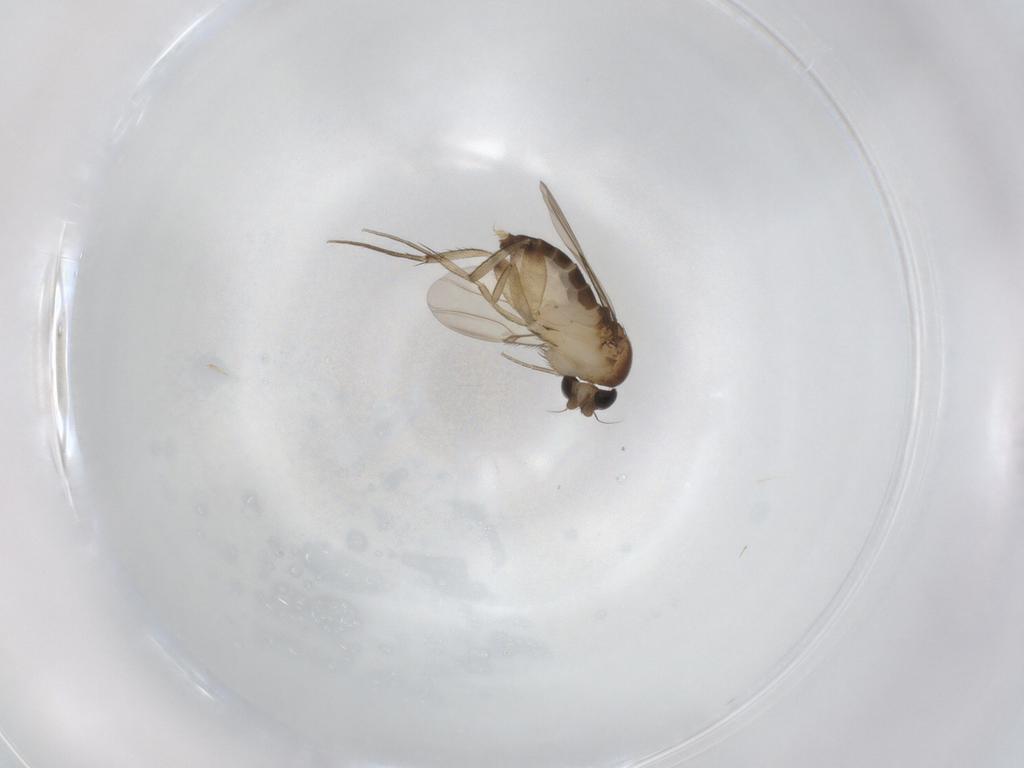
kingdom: Animalia
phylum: Arthropoda
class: Insecta
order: Diptera
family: Phoridae
